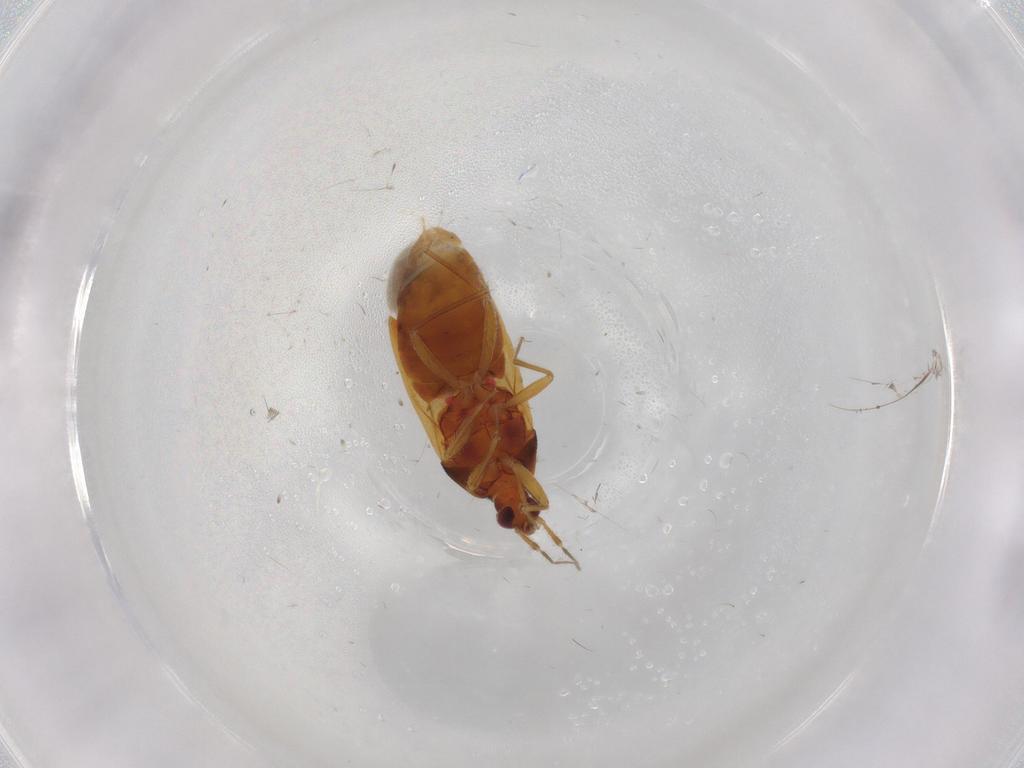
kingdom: Animalia
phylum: Arthropoda
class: Insecta
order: Hemiptera
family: Anthocoridae
